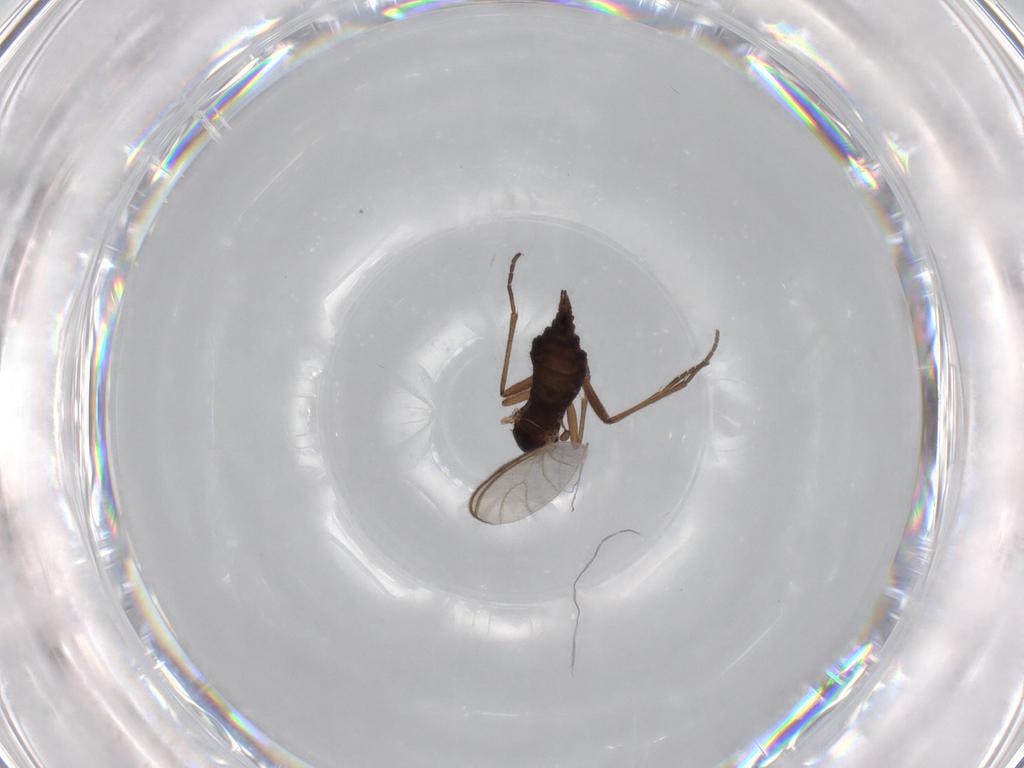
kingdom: Animalia
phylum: Arthropoda
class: Insecta
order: Diptera
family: Sciaridae
